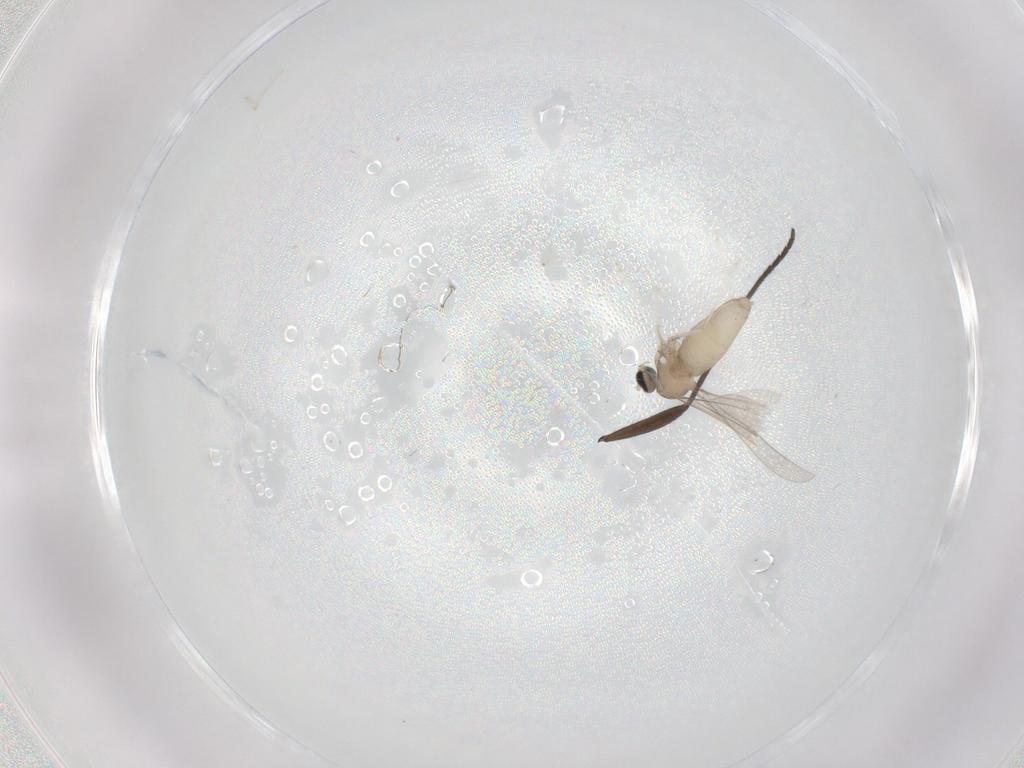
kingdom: Animalia
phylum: Arthropoda
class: Insecta
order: Diptera
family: Cecidomyiidae
